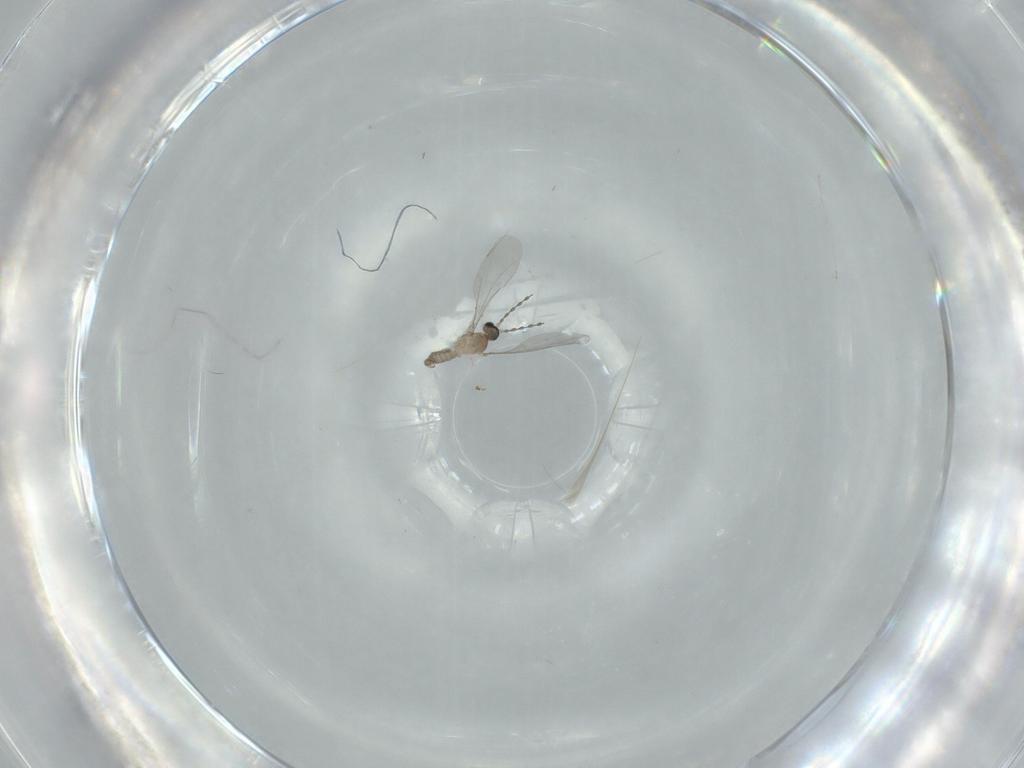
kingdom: Animalia
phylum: Arthropoda
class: Insecta
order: Diptera
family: Cecidomyiidae
